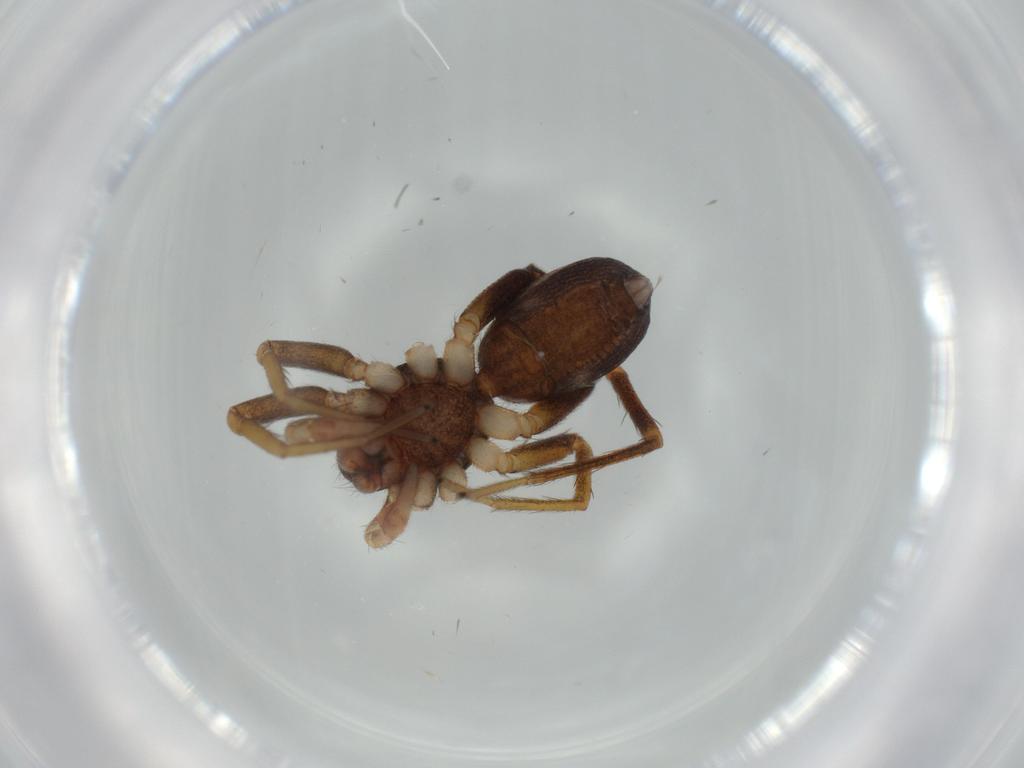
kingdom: Animalia
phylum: Arthropoda
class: Arachnida
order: Araneae
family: Corinnidae
